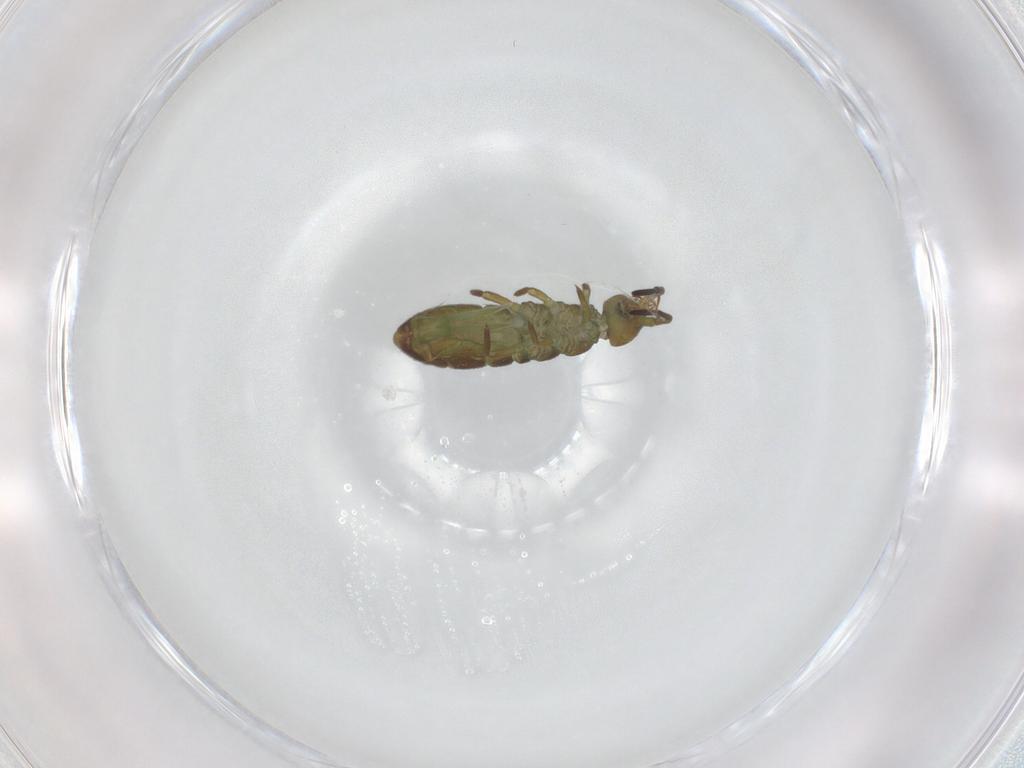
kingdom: Animalia
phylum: Arthropoda
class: Collembola
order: Entomobryomorpha
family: Isotomidae
